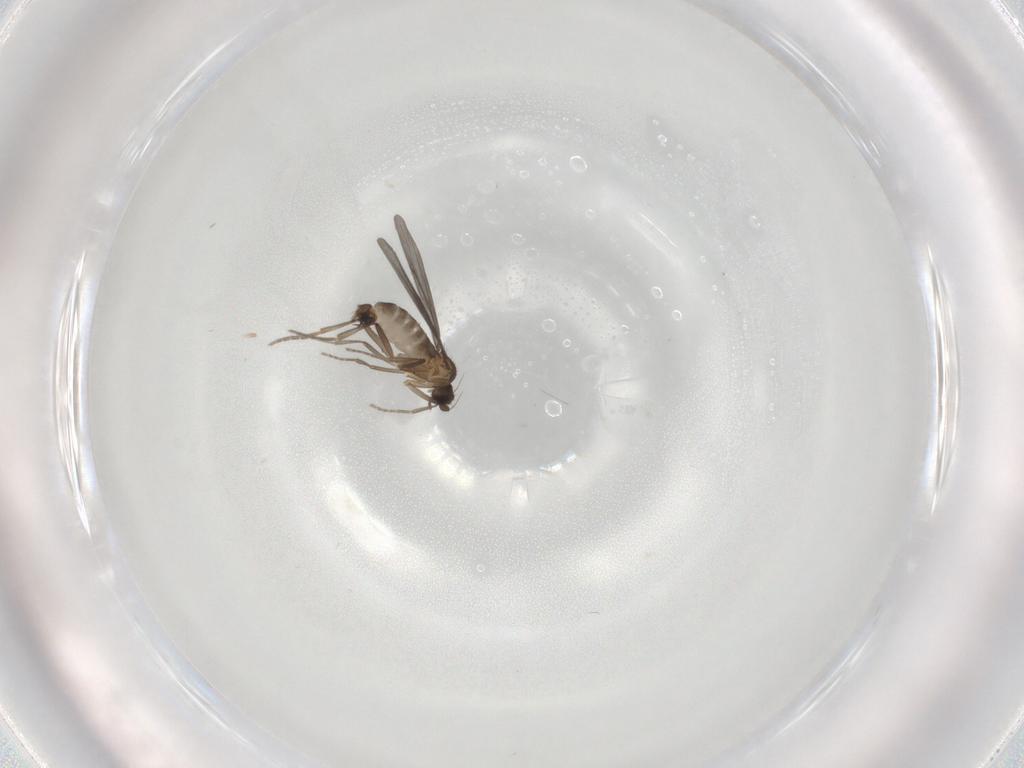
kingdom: Animalia
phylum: Arthropoda
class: Insecta
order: Diptera
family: Phoridae
